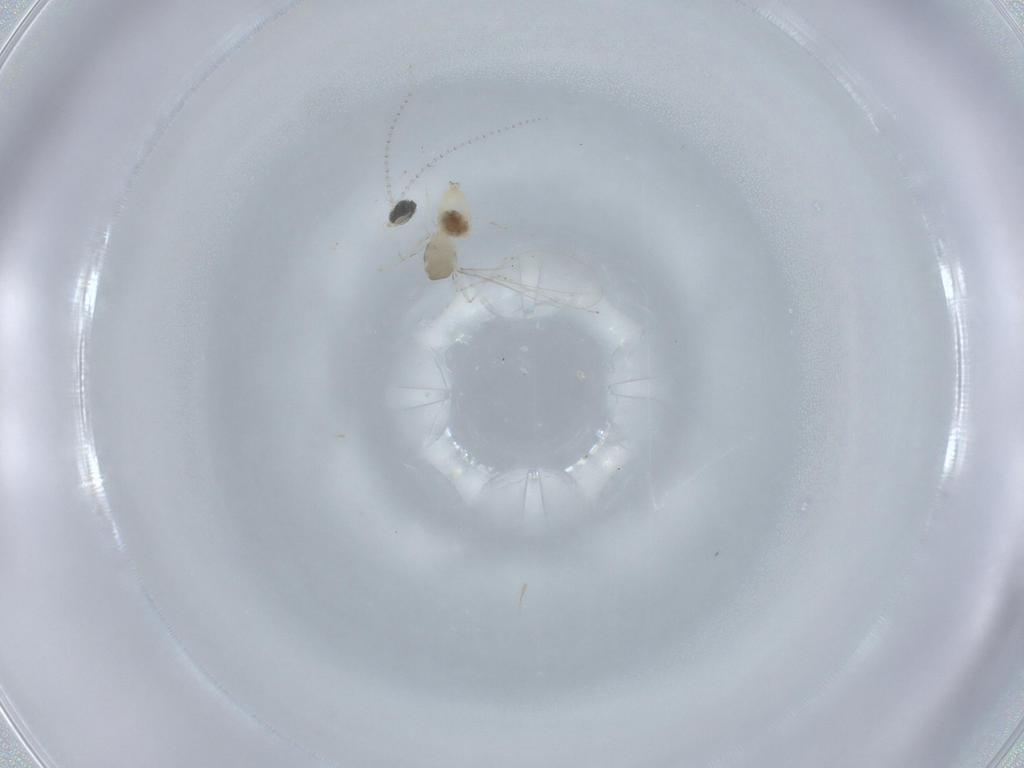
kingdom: Animalia
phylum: Arthropoda
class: Insecta
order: Diptera
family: Cecidomyiidae
